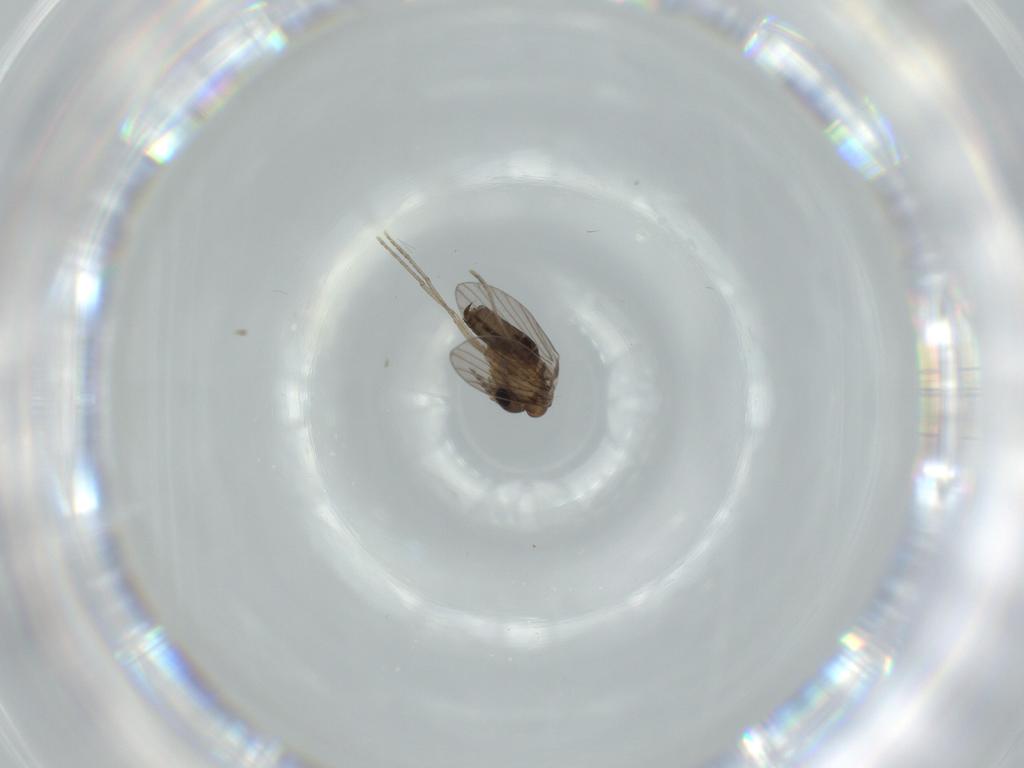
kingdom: Animalia
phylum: Arthropoda
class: Insecta
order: Diptera
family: Psychodidae
